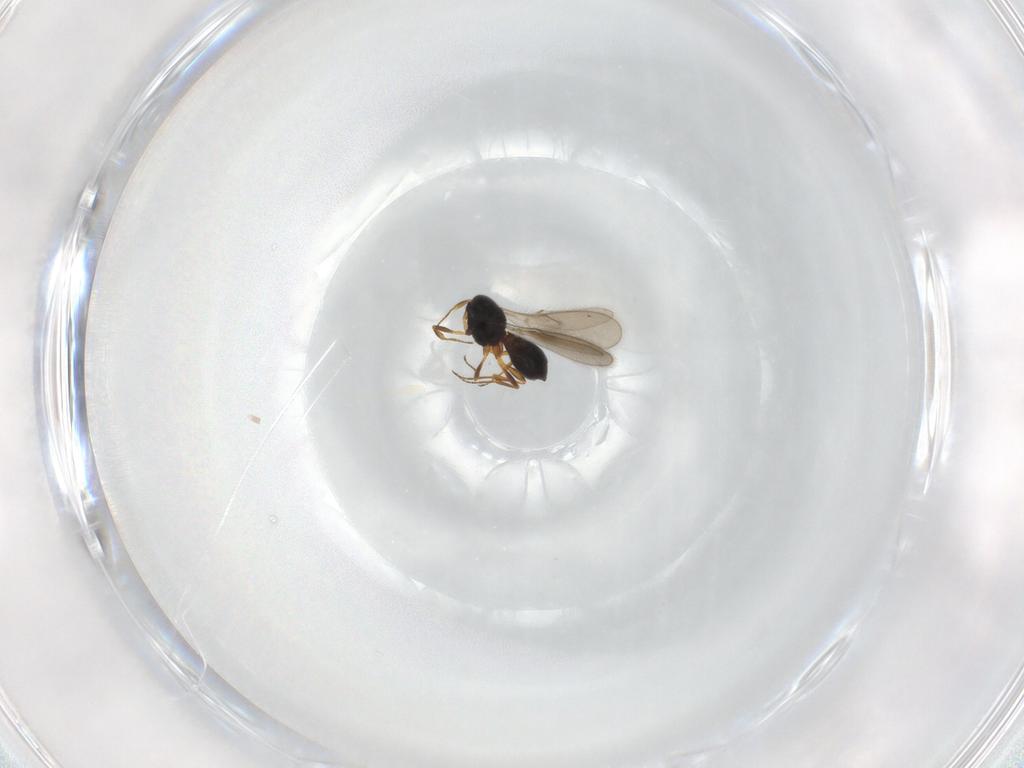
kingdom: Animalia
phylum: Arthropoda
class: Insecta
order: Hymenoptera
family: Scelionidae
